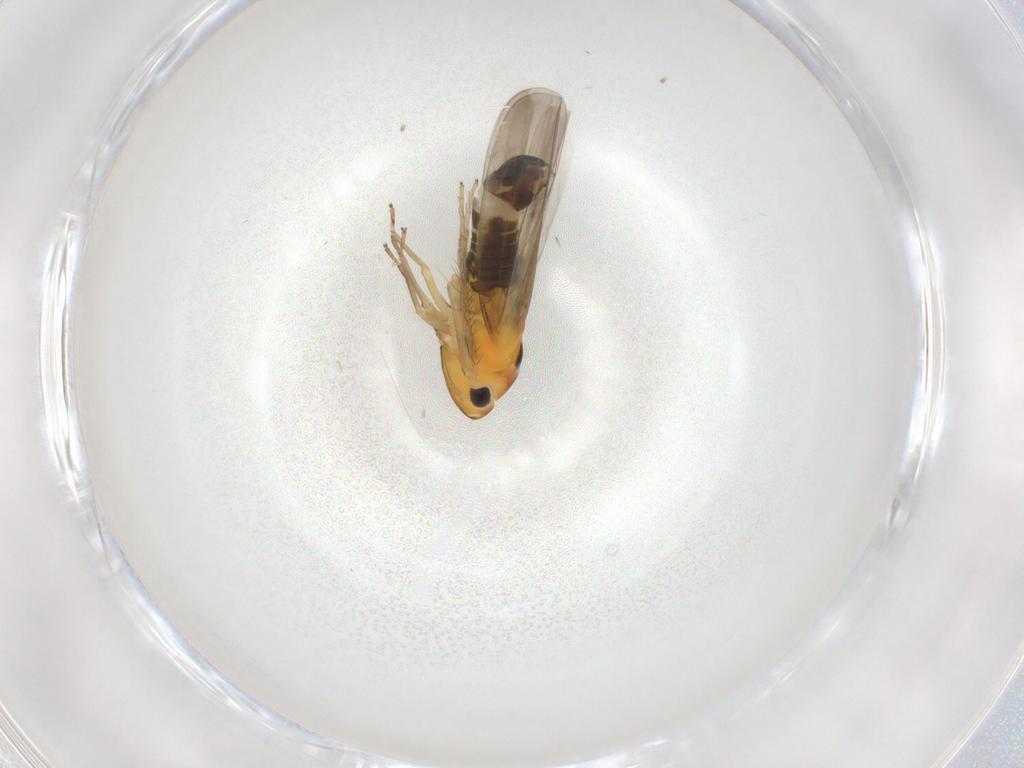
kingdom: Animalia
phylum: Arthropoda
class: Insecta
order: Hemiptera
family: Cicadellidae
